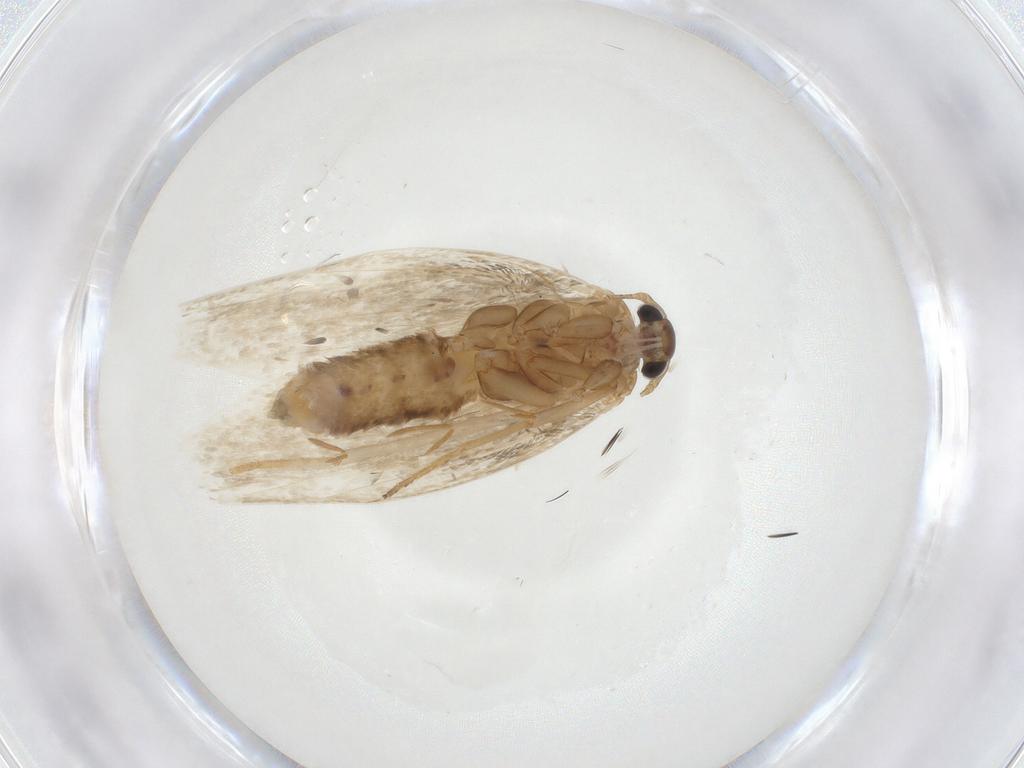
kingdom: Animalia
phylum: Arthropoda
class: Insecta
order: Lepidoptera
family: Erebidae
